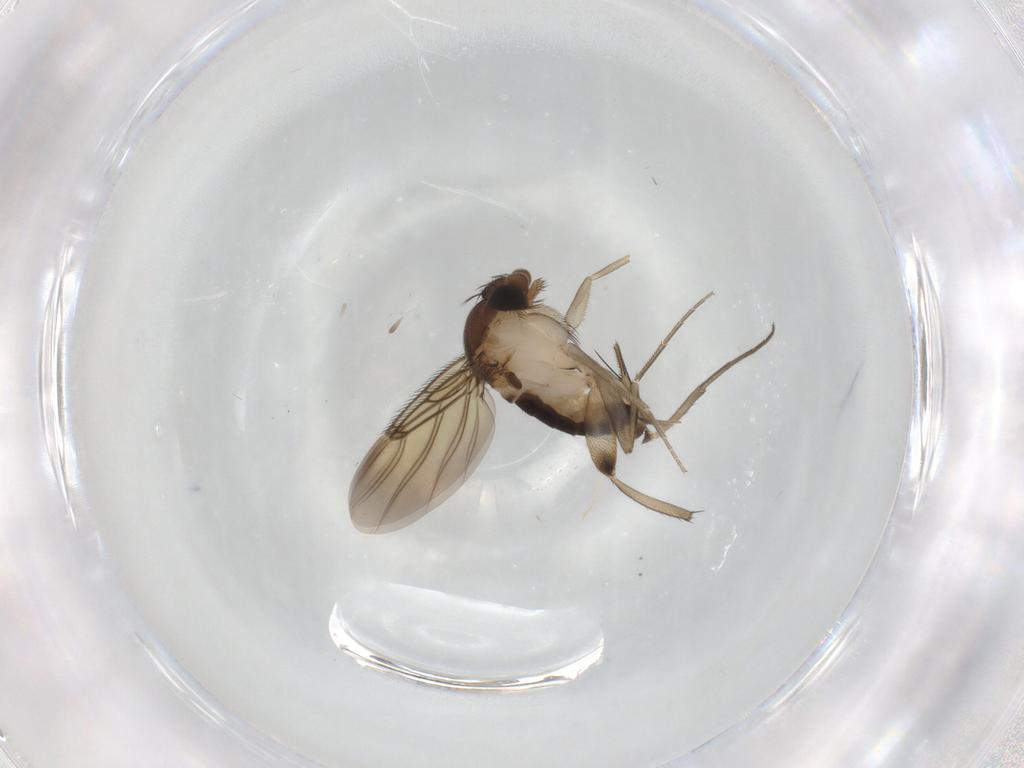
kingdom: Animalia
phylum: Arthropoda
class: Insecta
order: Diptera
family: Phoridae
